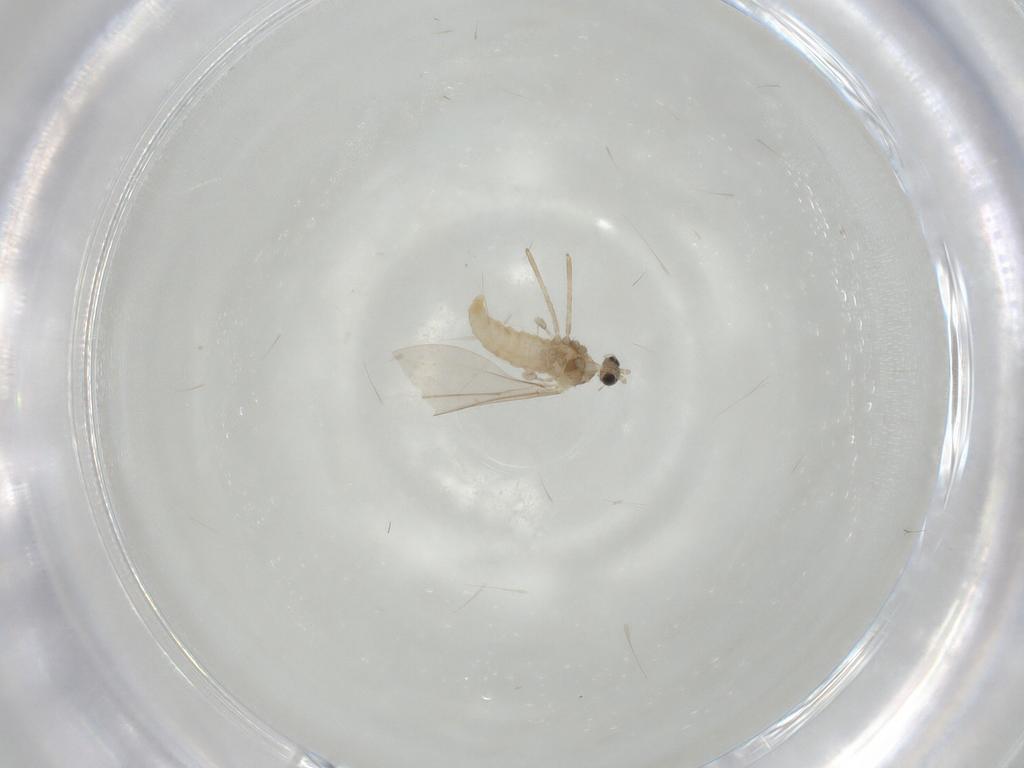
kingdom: Animalia
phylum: Arthropoda
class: Insecta
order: Diptera
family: Cecidomyiidae
